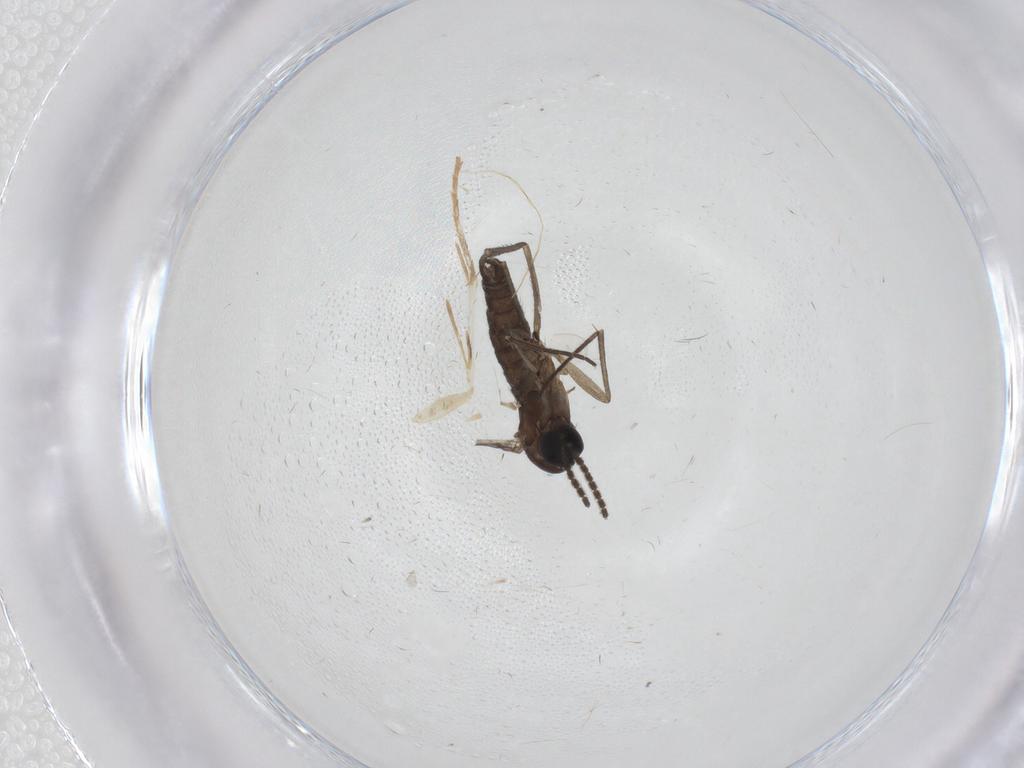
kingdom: Animalia
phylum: Arthropoda
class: Insecta
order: Diptera
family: Sciaridae
